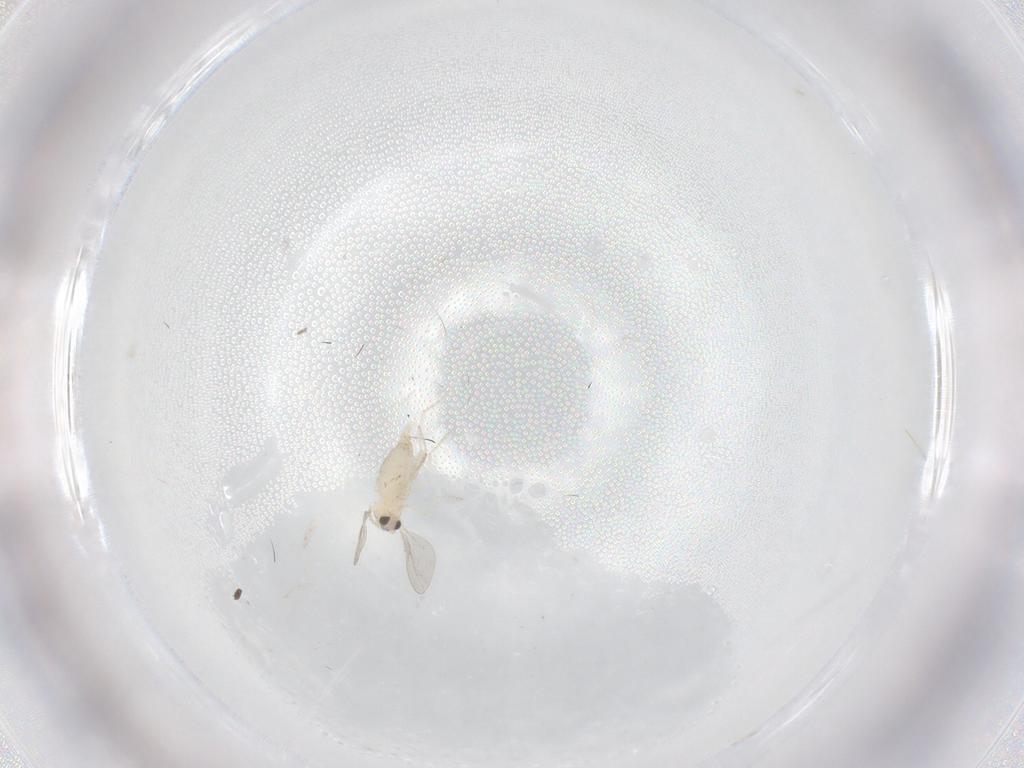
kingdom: Animalia
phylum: Arthropoda
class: Insecta
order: Diptera
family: Cecidomyiidae
